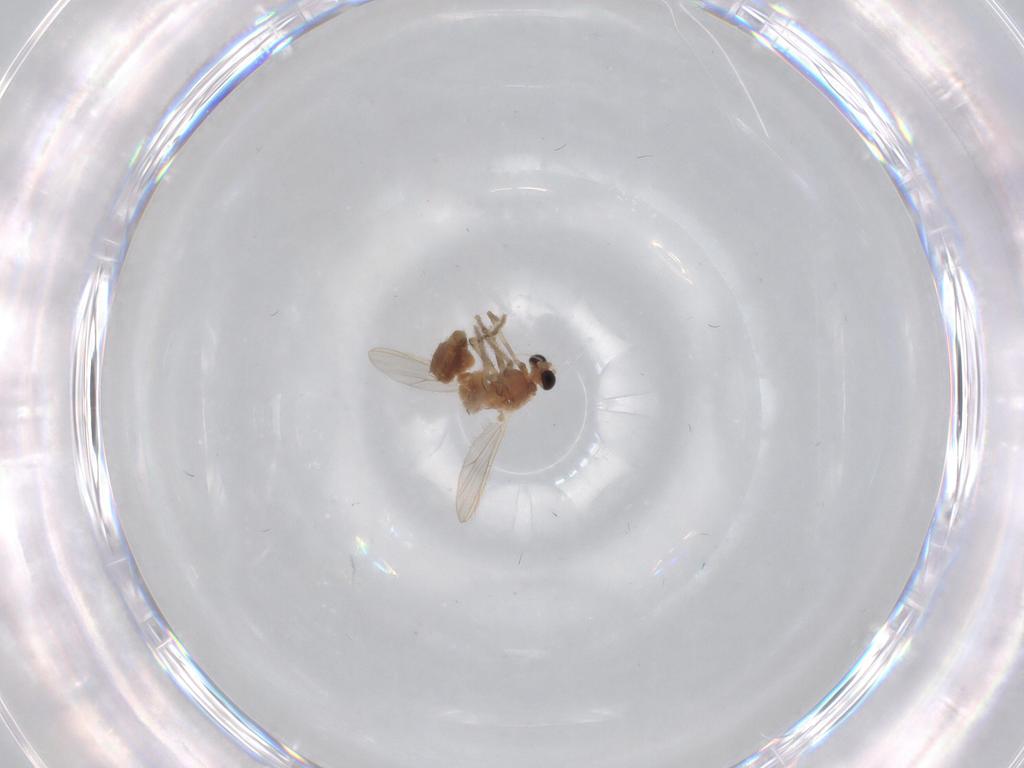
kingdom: Animalia
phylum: Arthropoda
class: Insecta
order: Diptera
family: Chironomidae
